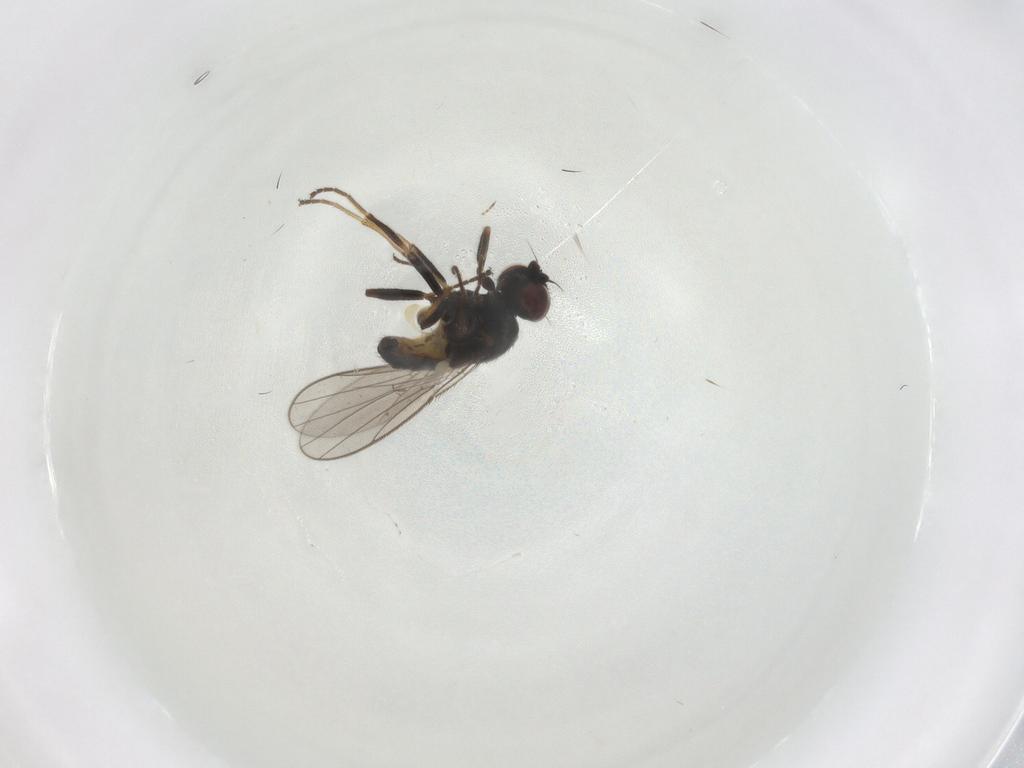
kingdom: Animalia
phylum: Arthropoda
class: Insecta
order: Diptera
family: Chloropidae
